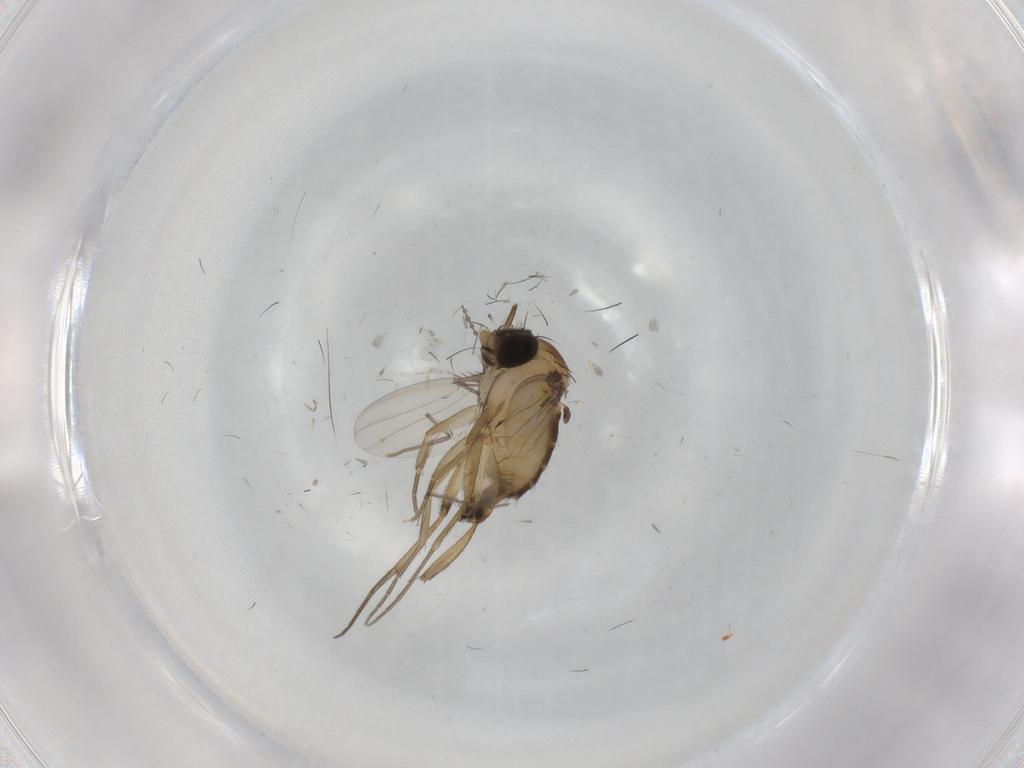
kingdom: Animalia
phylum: Arthropoda
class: Insecta
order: Diptera
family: Phoridae
